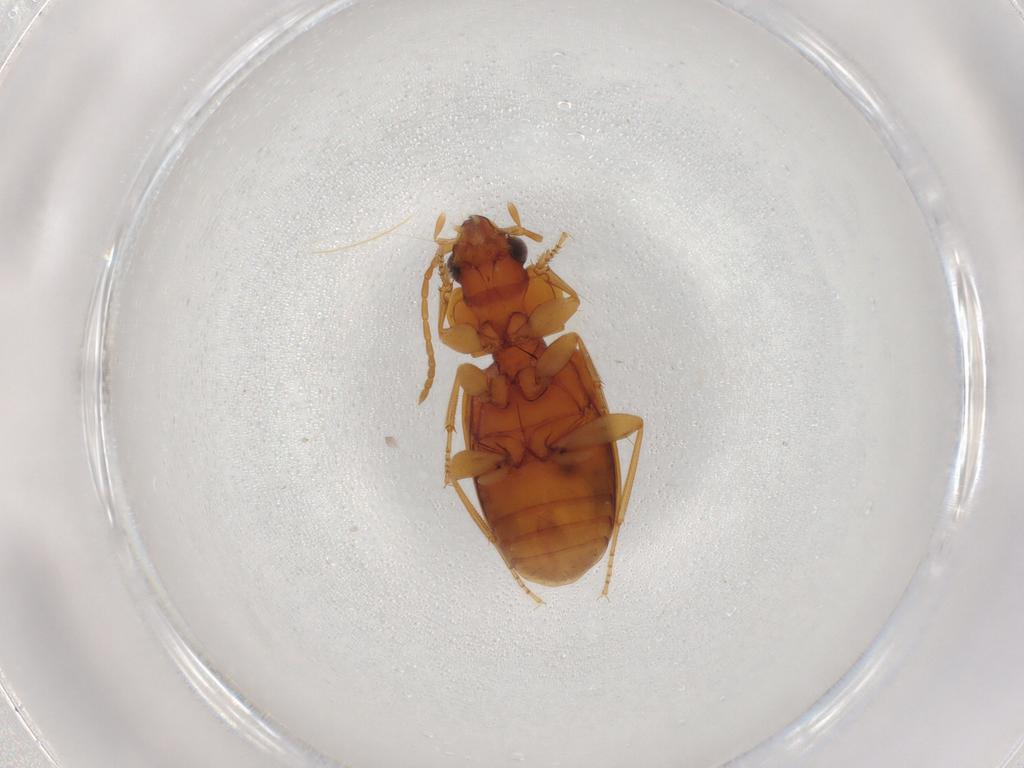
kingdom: Animalia
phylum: Arthropoda
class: Insecta
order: Coleoptera
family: Carabidae
